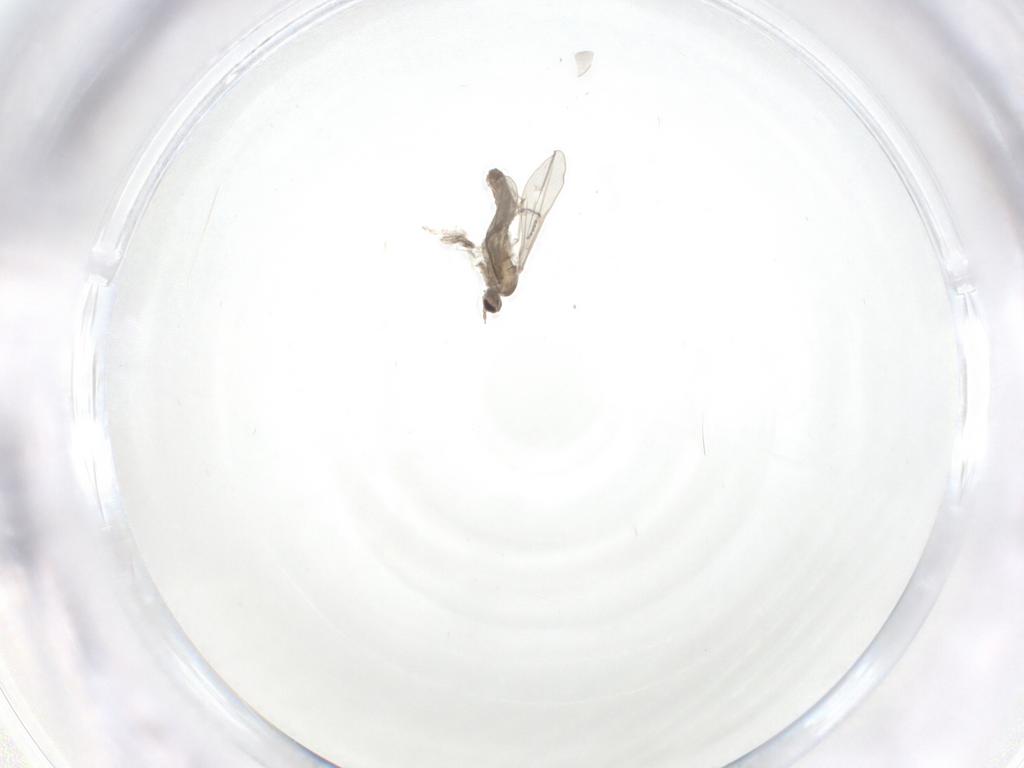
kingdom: Animalia
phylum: Arthropoda
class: Insecta
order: Diptera
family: Cecidomyiidae
